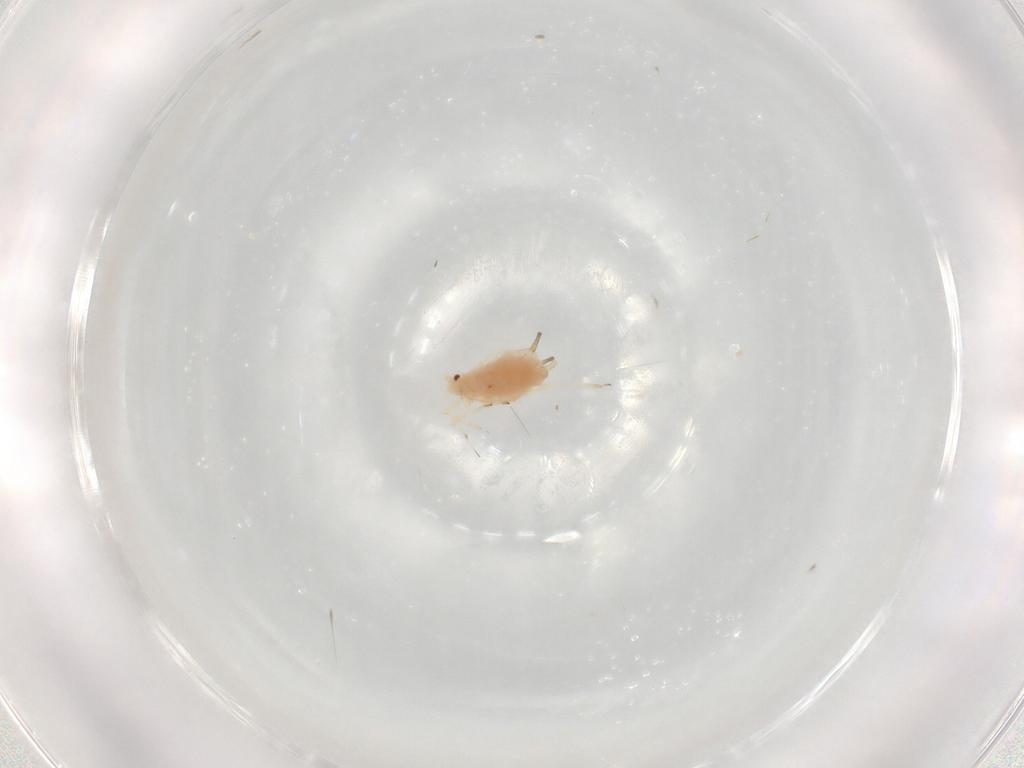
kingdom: Animalia
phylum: Arthropoda
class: Insecta
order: Hemiptera
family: Aphididae
